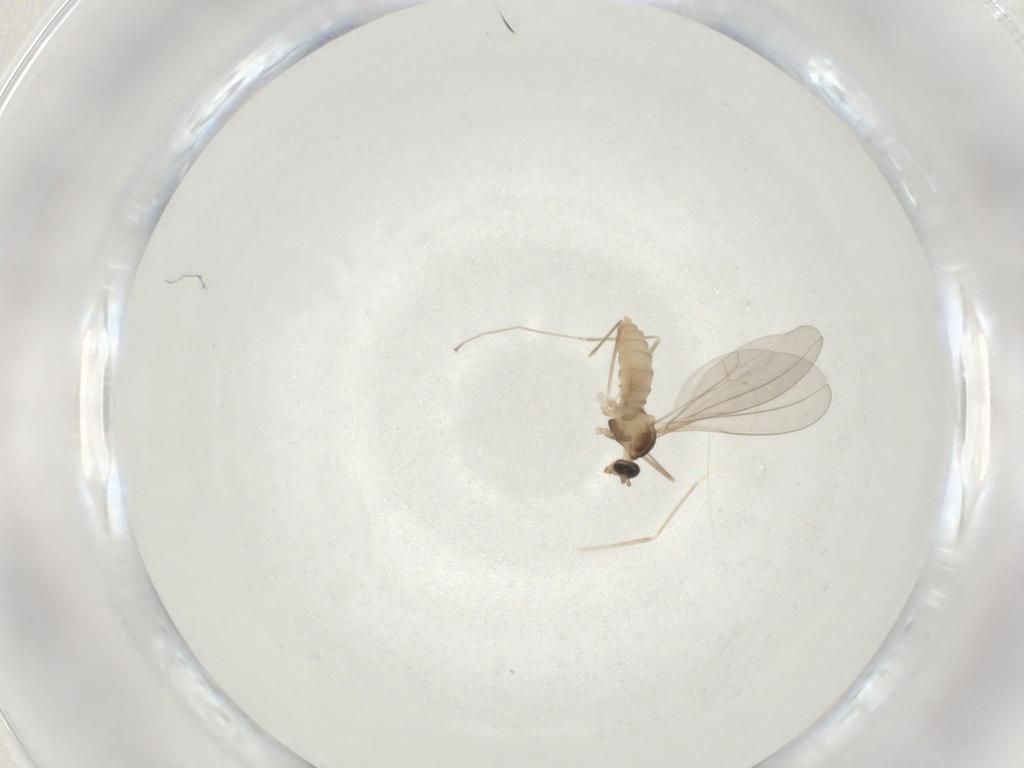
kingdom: Animalia
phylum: Arthropoda
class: Insecta
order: Diptera
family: Cecidomyiidae
